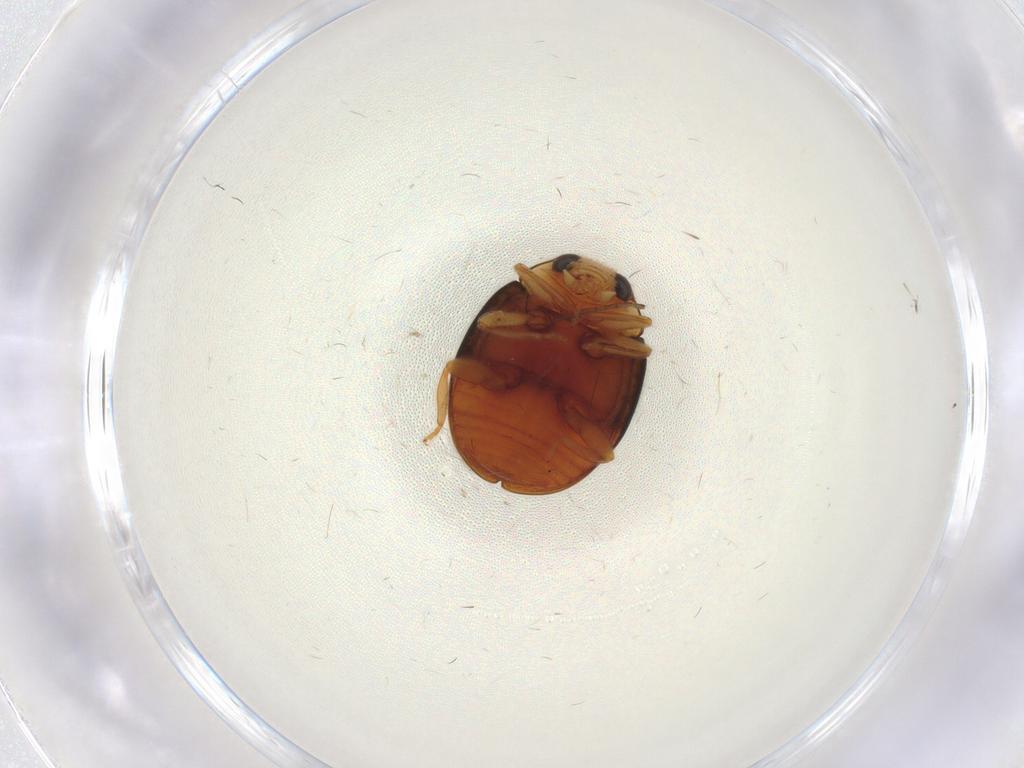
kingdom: Animalia
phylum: Arthropoda
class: Insecta
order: Coleoptera
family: Coccinellidae
